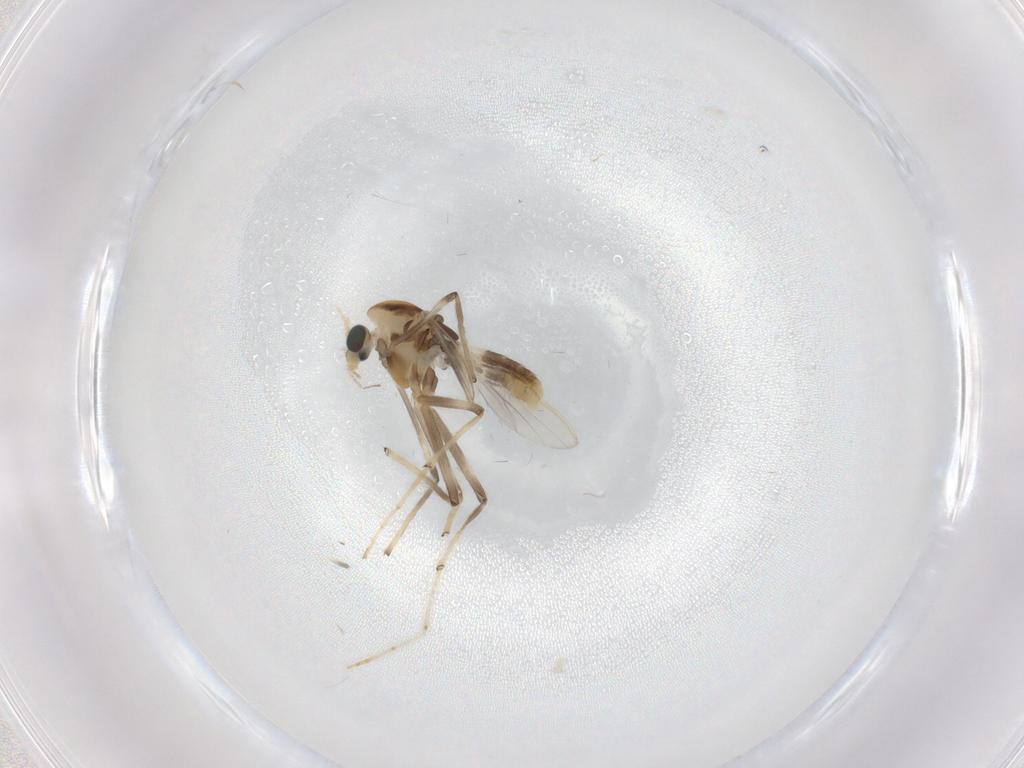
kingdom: Animalia
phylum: Arthropoda
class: Insecta
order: Diptera
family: Chironomidae
